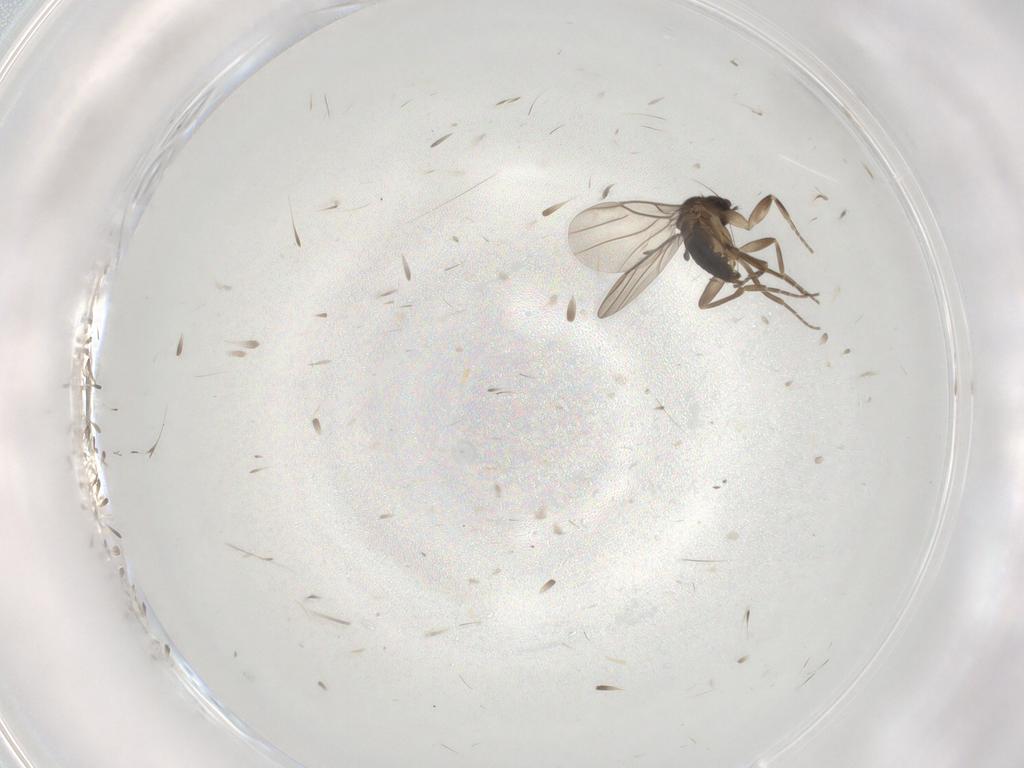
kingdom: Animalia
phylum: Arthropoda
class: Insecta
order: Diptera
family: Phoridae
